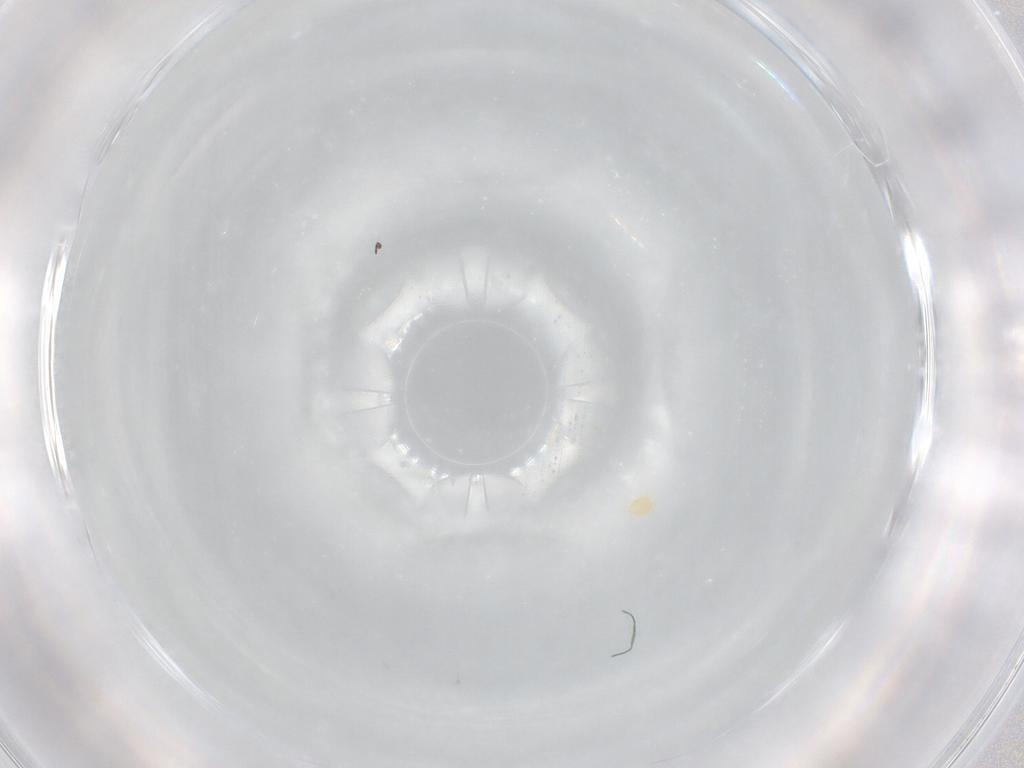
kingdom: Animalia
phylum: Arthropoda
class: Arachnida
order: Mesostigmata
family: Phytoseiidae
